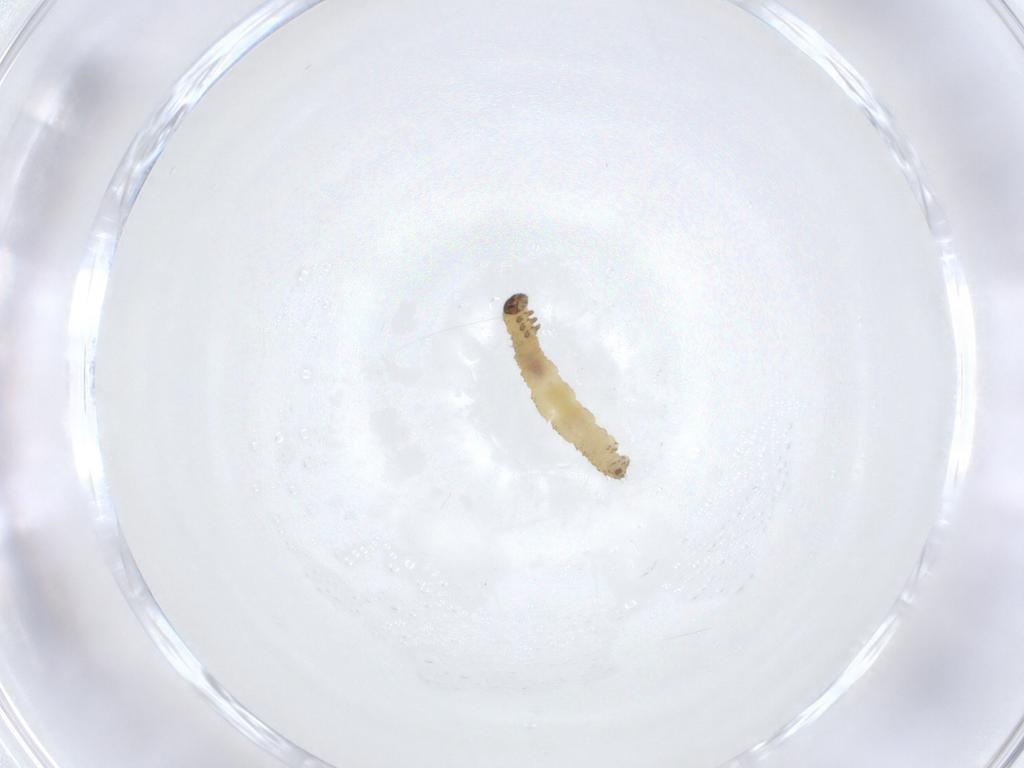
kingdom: Animalia
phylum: Arthropoda
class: Insecta
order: Lepidoptera
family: Geometridae
